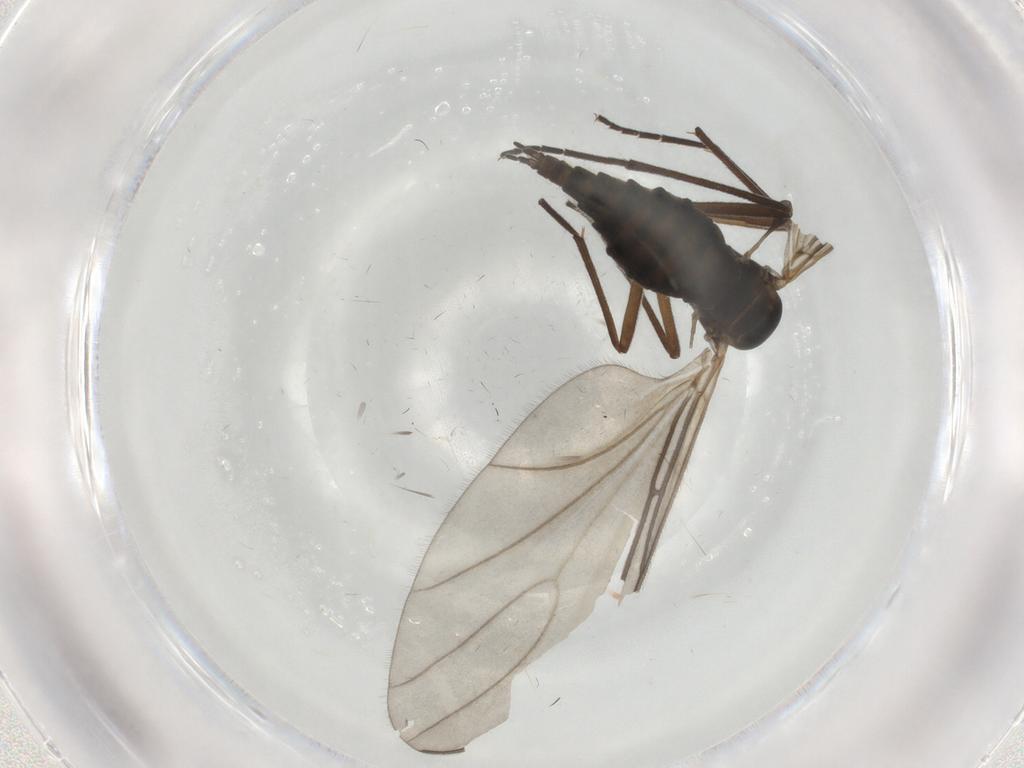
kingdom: Animalia
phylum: Arthropoda
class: Insecta
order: Diptera
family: Sciaridae
